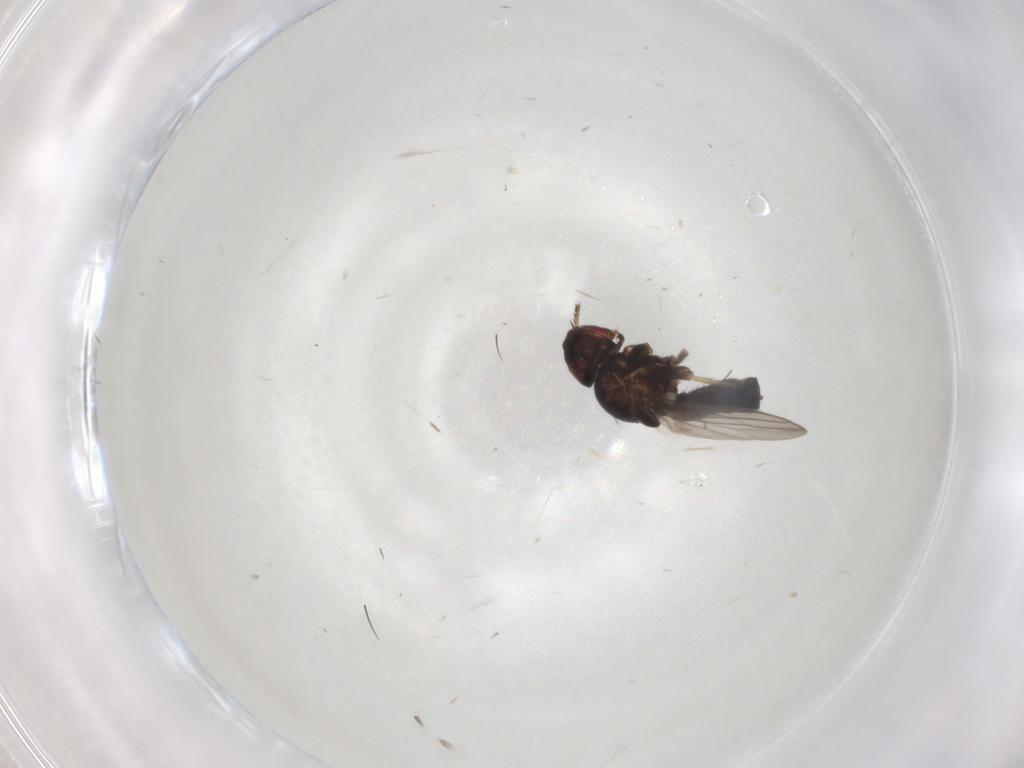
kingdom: Animalia
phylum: Arthropoda
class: Insecta
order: Diptera
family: Chloropidae
